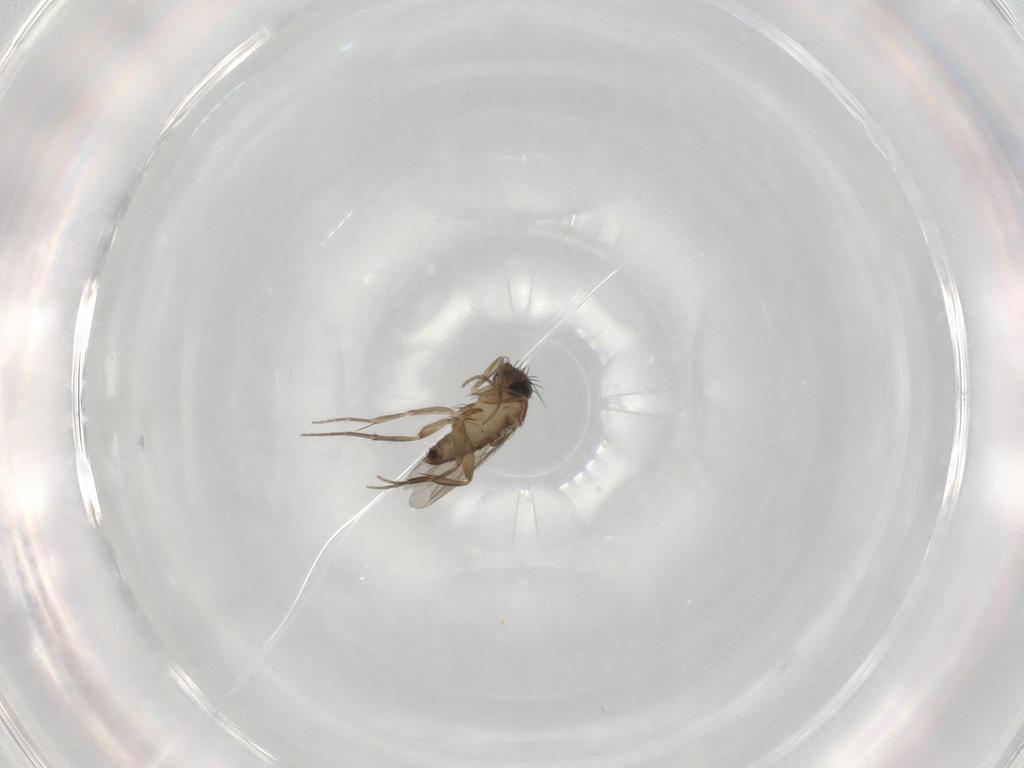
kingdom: Animalia
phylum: Arthropoda
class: Insecta
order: Diptera
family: Phoridae
